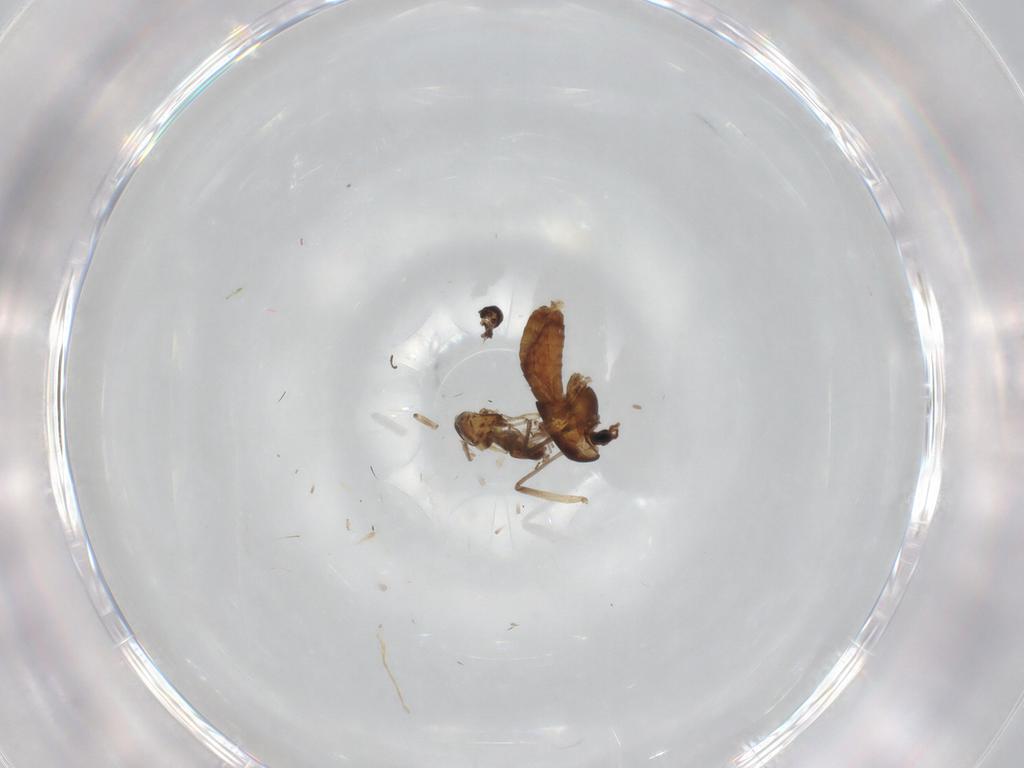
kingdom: Animalia
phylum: Arthropoda
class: Insecta
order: Diptera
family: Chironomidae
